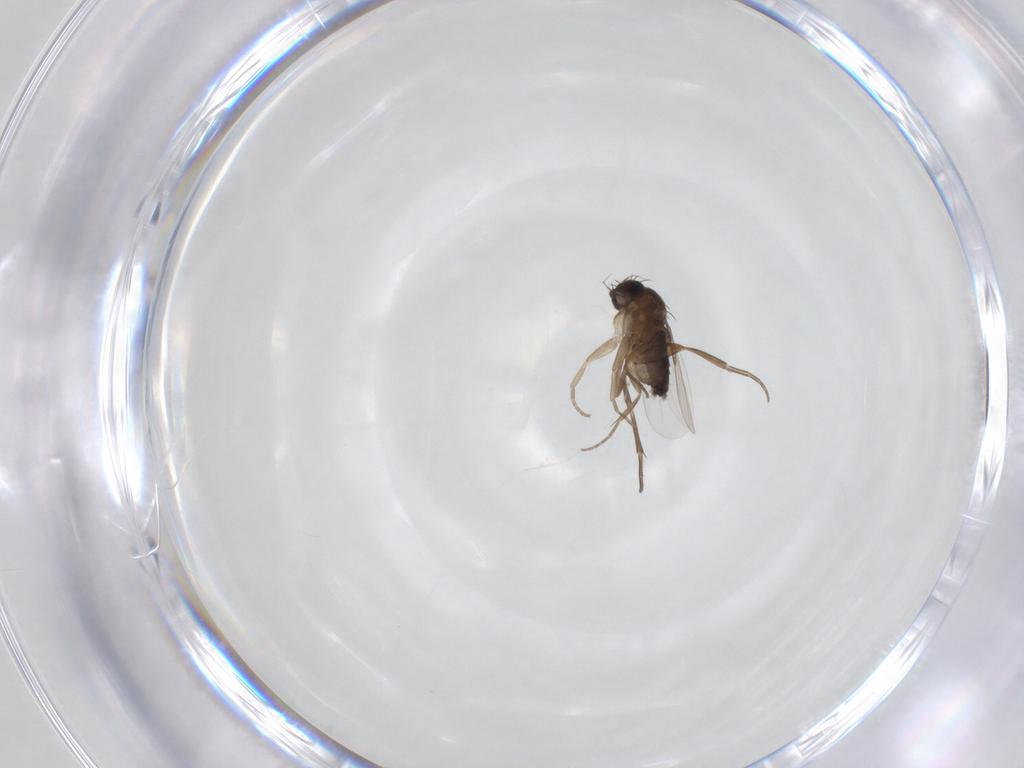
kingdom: Animalia
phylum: Arthropoda
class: Insecta
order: Diptera
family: Phoridae
